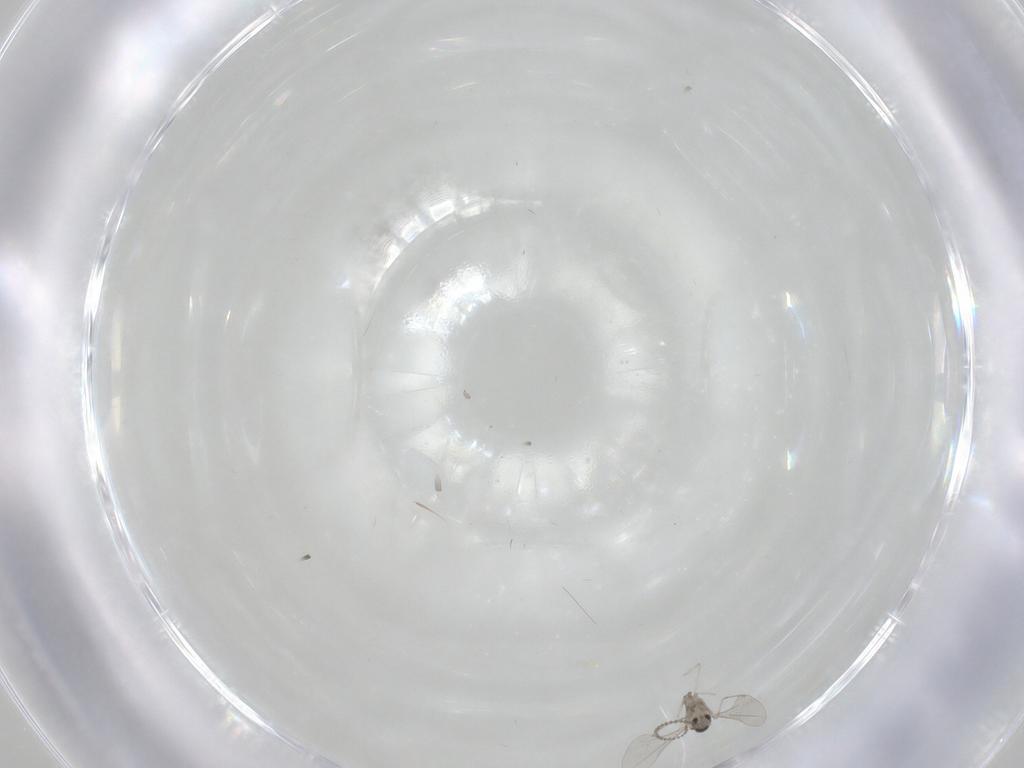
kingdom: Animalia
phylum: Arthropoda
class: Insecta
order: Diptera
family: Cecidomyiidae
